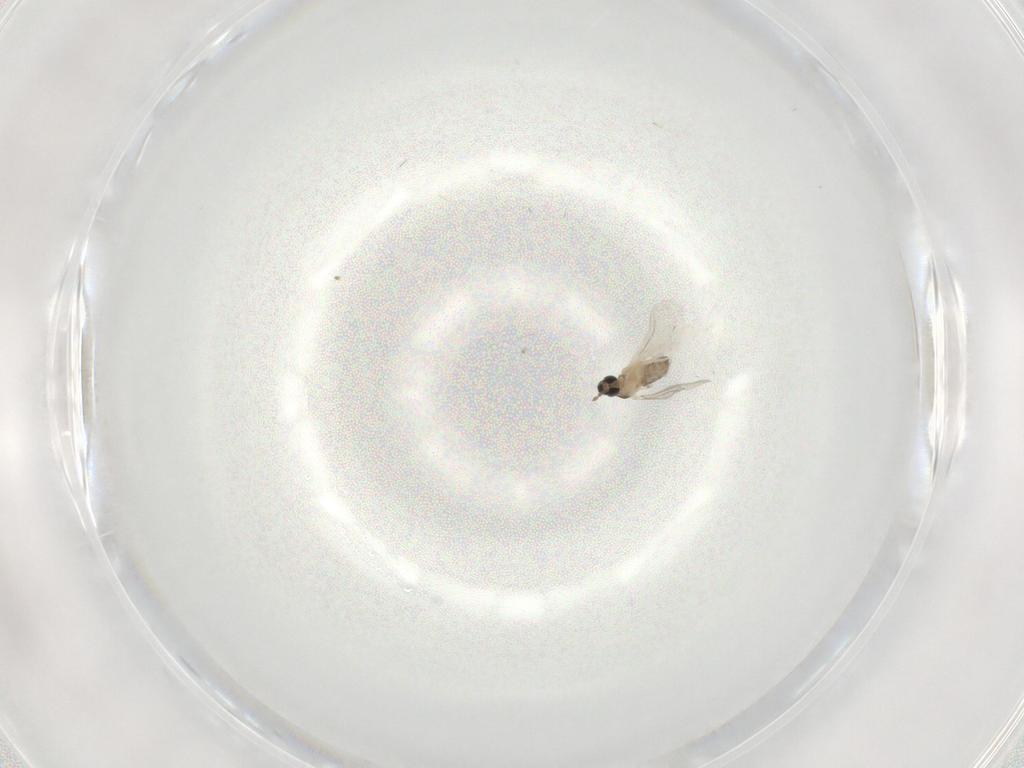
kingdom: Animalia
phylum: Arthropoda
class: Insecta
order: Diptera
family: Cecidomyiidae
